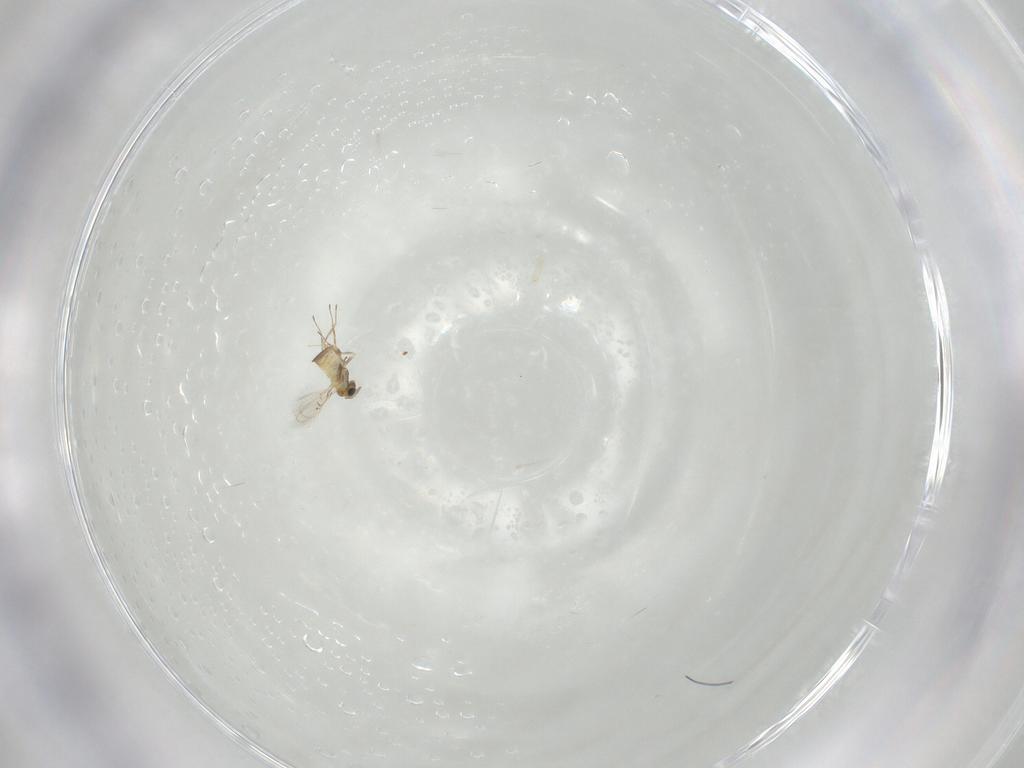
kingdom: Animalia
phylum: Arthropoda
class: Insecta
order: Hymenoptera
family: Trichogrammatidae
